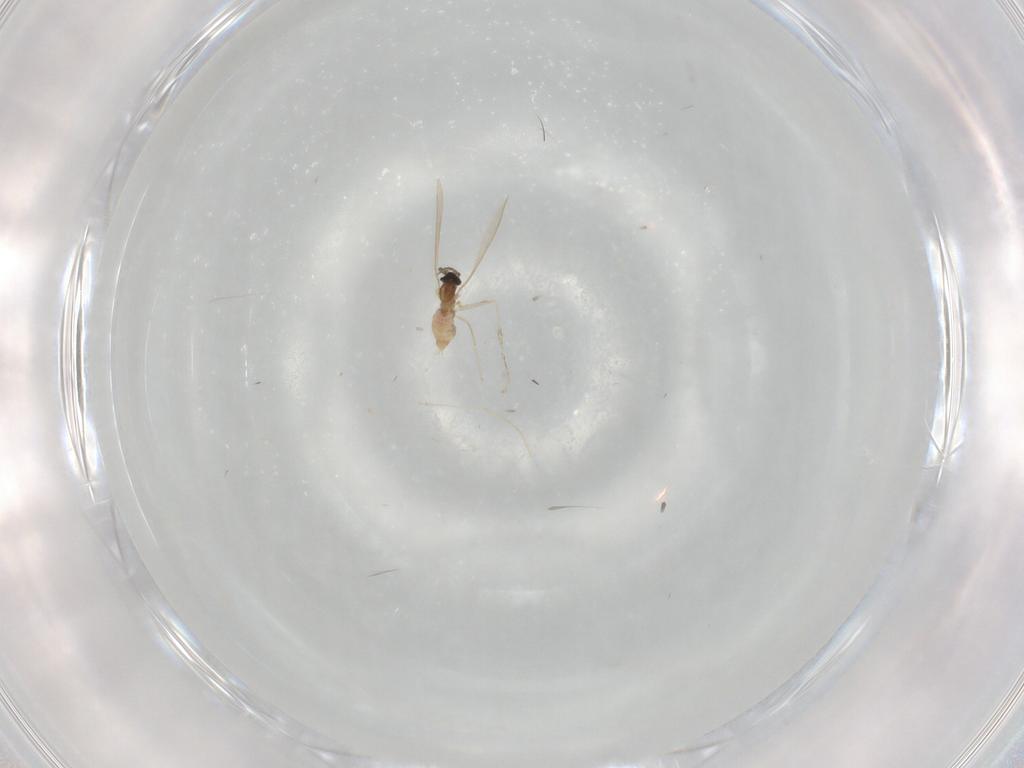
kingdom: Animalia
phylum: Arthropoda
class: Insecta
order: Diptera
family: Cecidomyiidae
